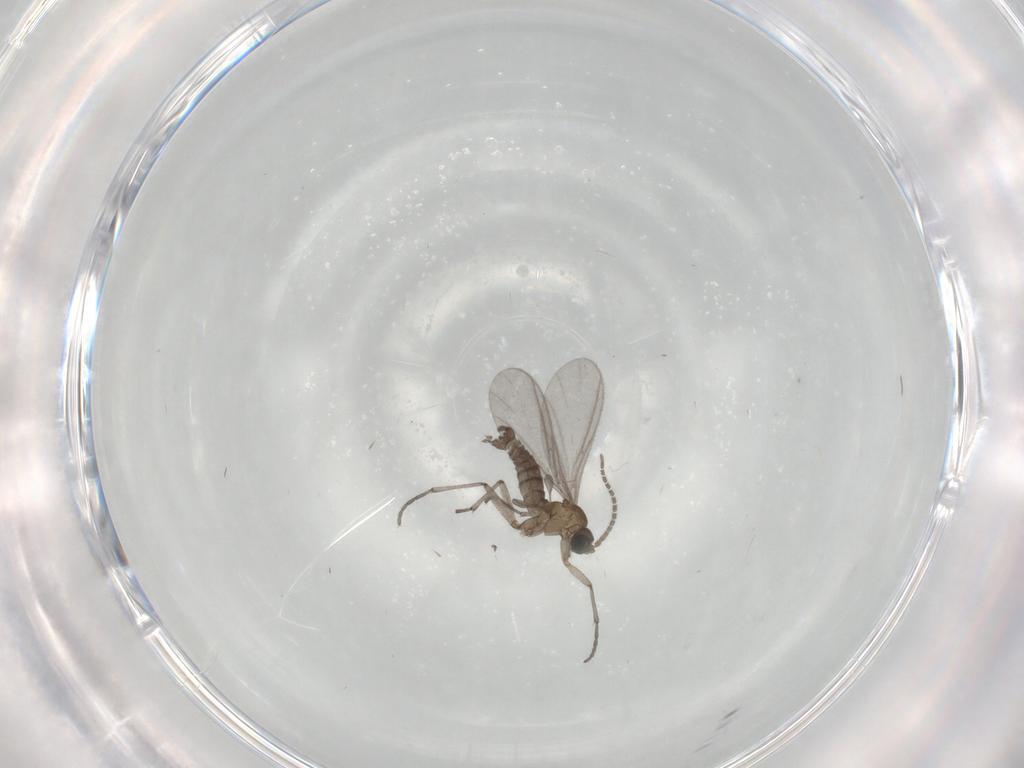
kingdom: Animalia
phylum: Arthropoda
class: Insecta
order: Diptera
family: Sciaridae
